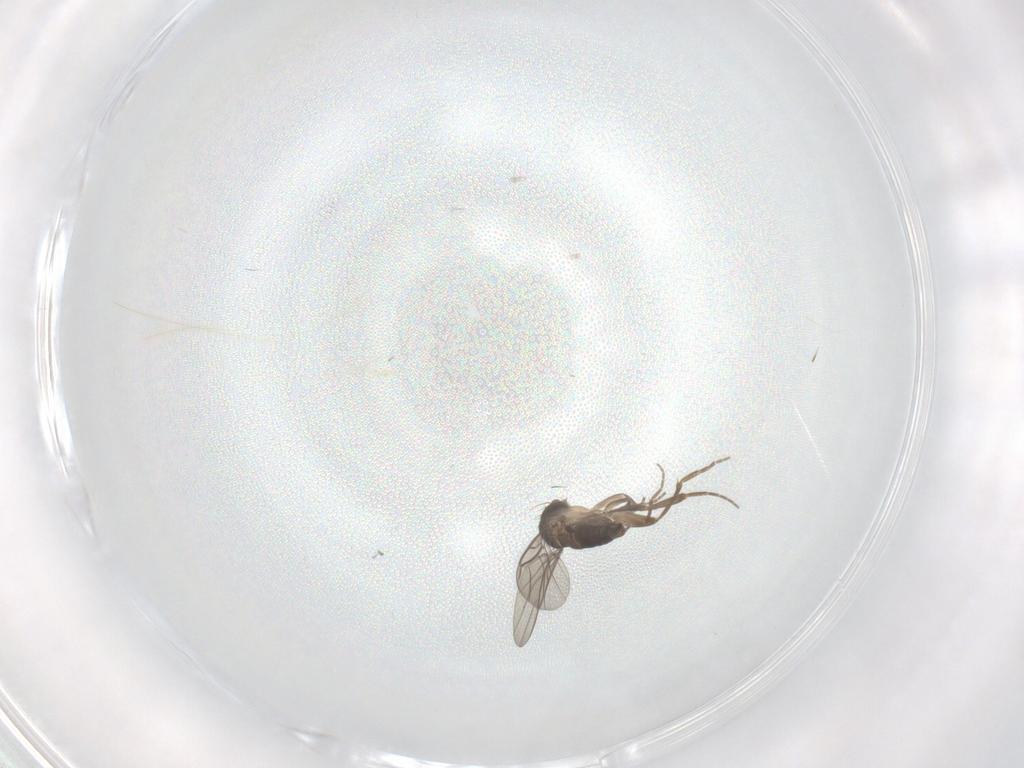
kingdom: Animalia
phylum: Arthropoda
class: Insecta
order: Diptera
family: Phoridae
